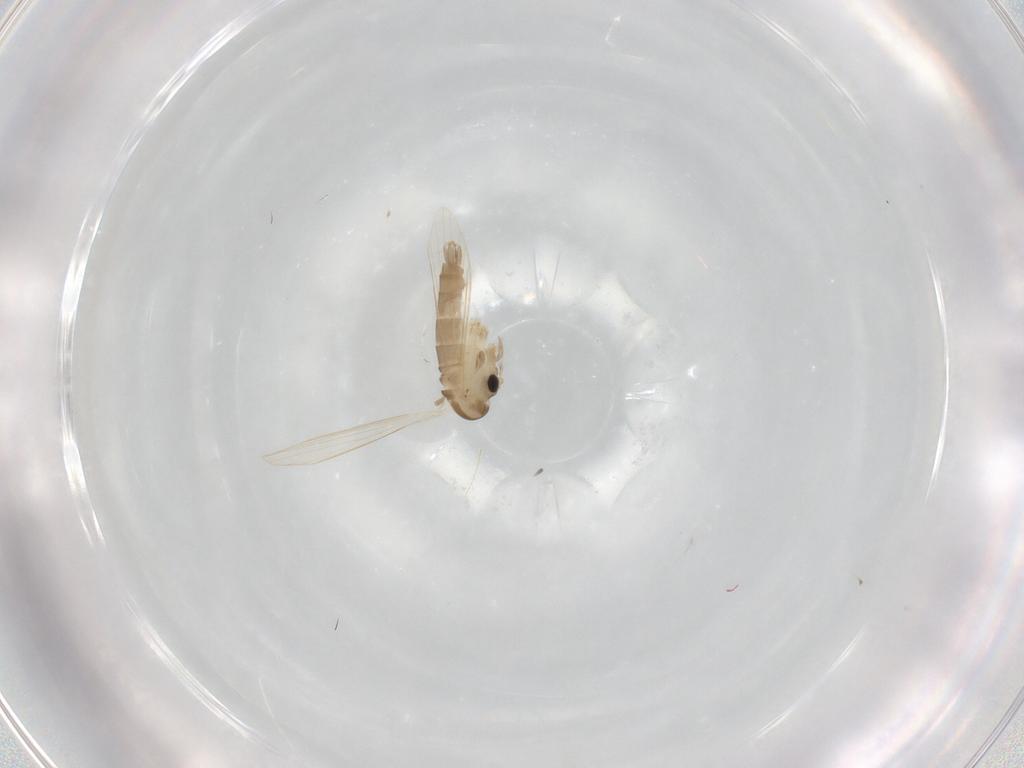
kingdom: Animalia
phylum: Arthropoda
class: Insecta
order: Diptera
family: Psychodidae
